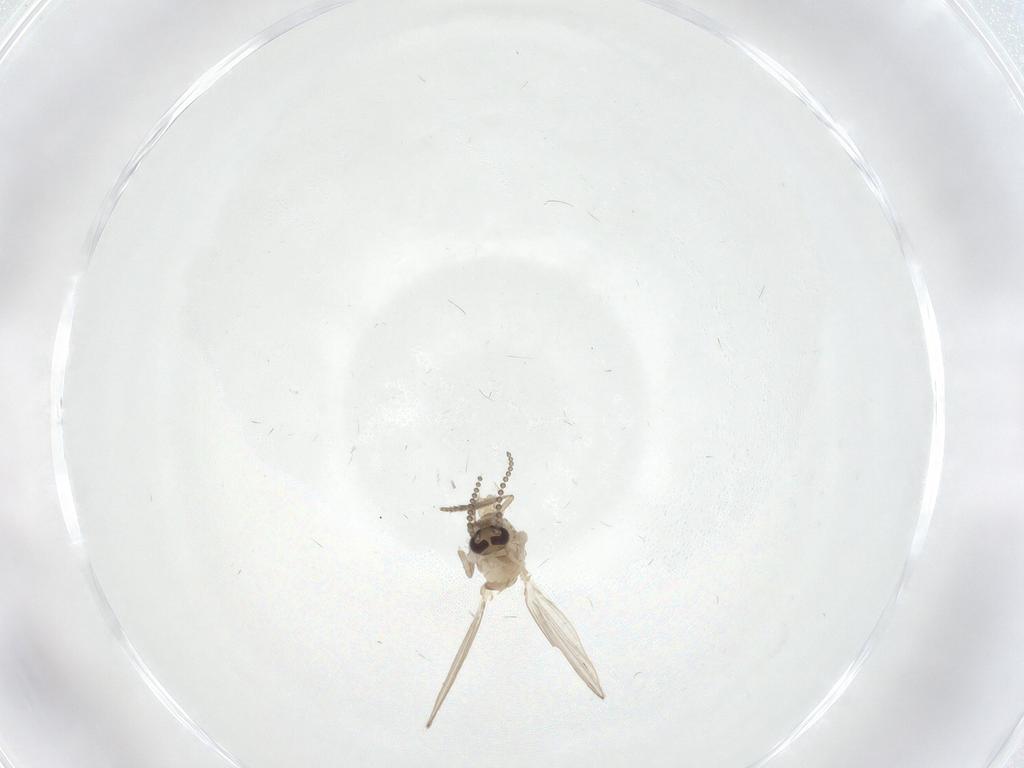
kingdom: Animalia
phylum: Arthropoda
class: Insecta
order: Diptera
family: Psychodidae
